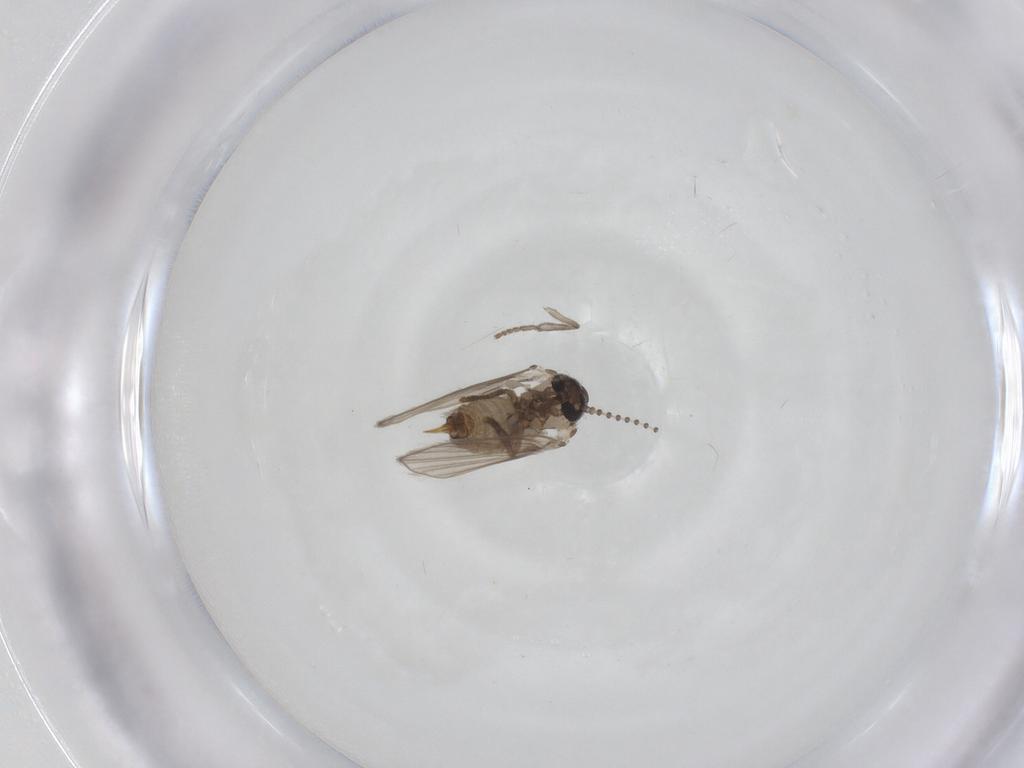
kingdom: Animalia
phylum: Arthropoda
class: Insecta
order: Diptera
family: Psychodidae
